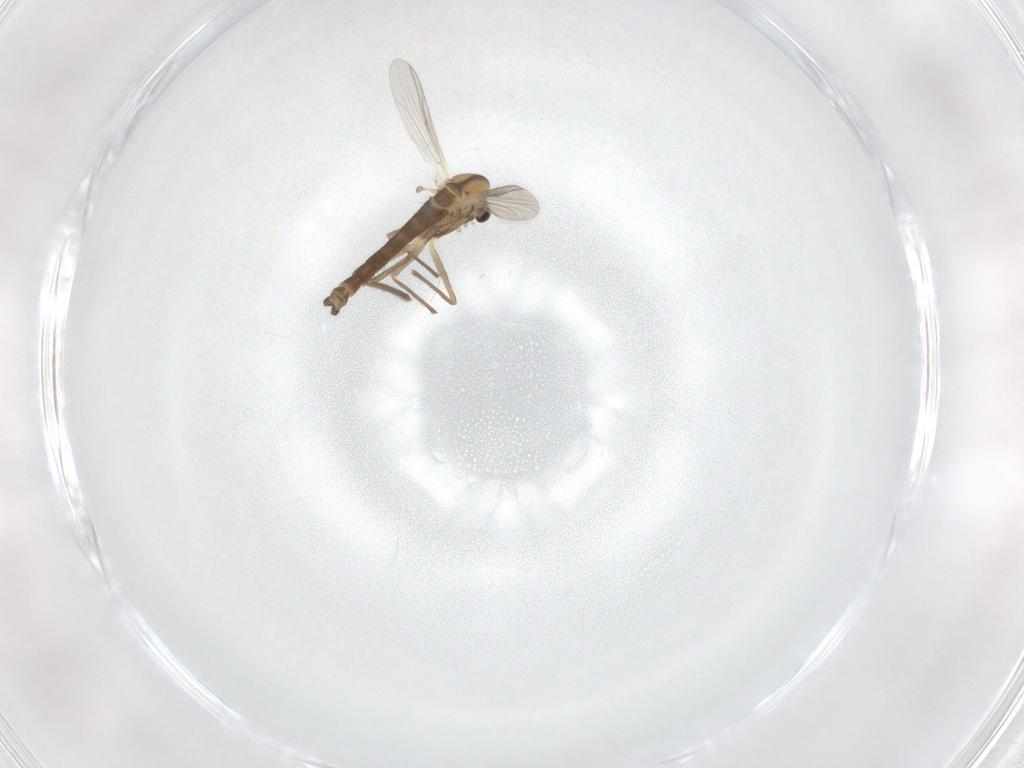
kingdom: Animalia
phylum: Arthropoda
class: Insecta
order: Diptera
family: Chironomidae
